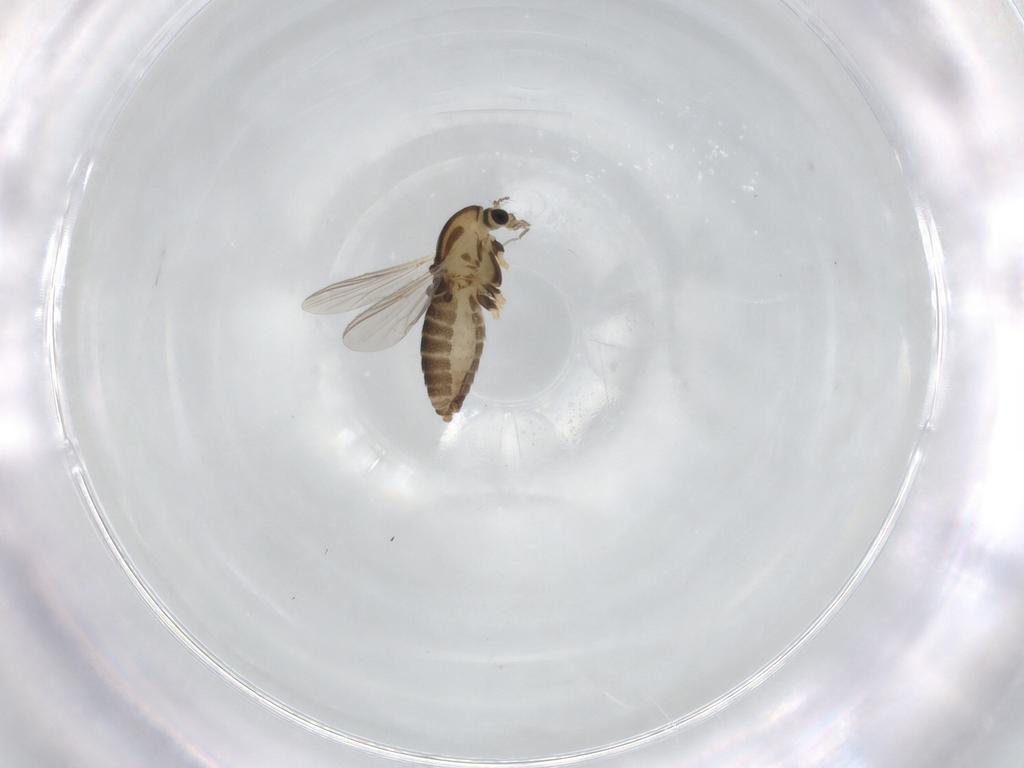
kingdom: Animalia
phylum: Arthropoda
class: Insecta
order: Diptera
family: Chironomidae
